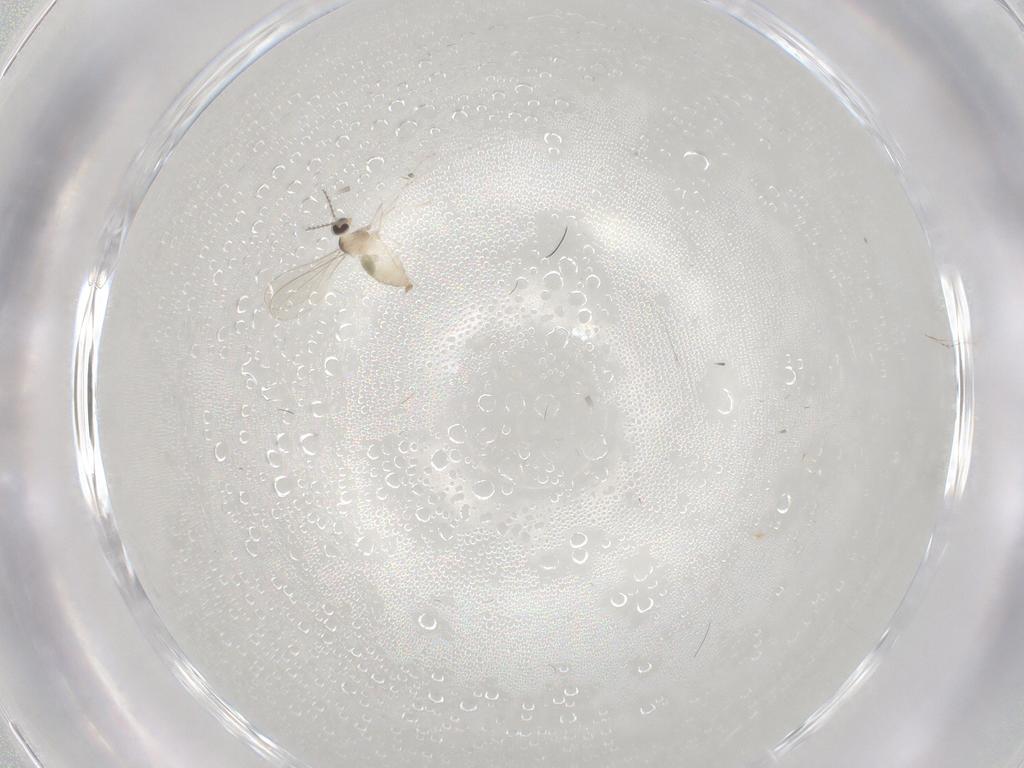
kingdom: Animalia
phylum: Arthropoda
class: Insecta
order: Diptera
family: Cecidomyiidae
